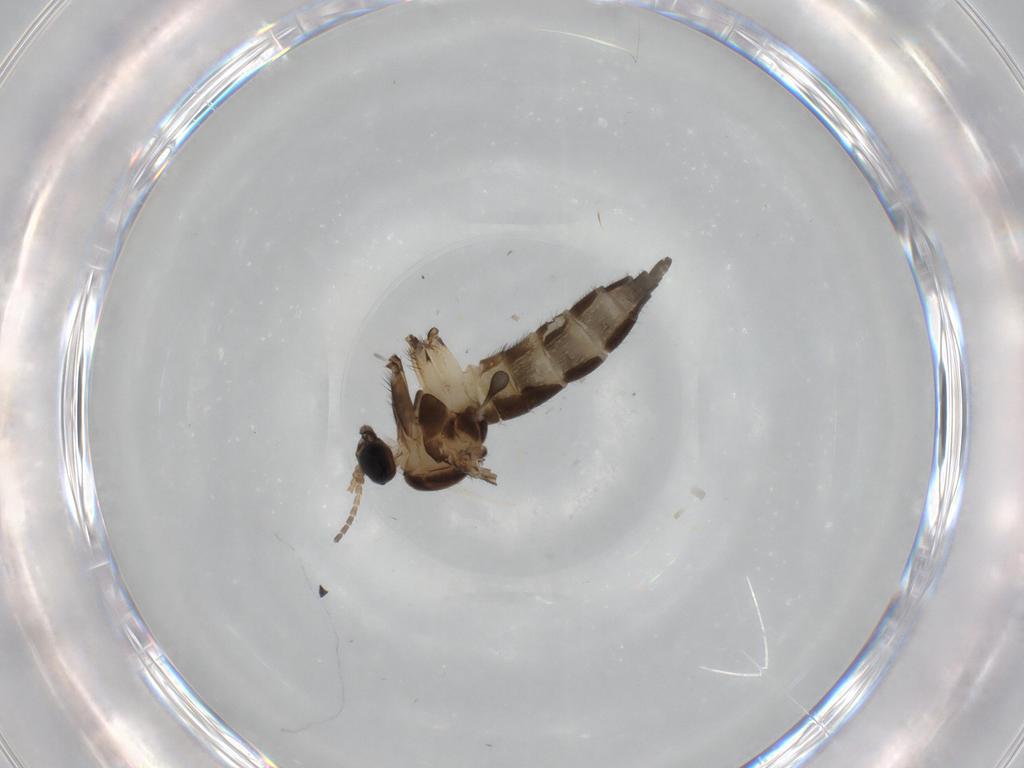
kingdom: Animalia
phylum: Arthropoda
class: Insecta
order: Diptera
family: Sciaridae
